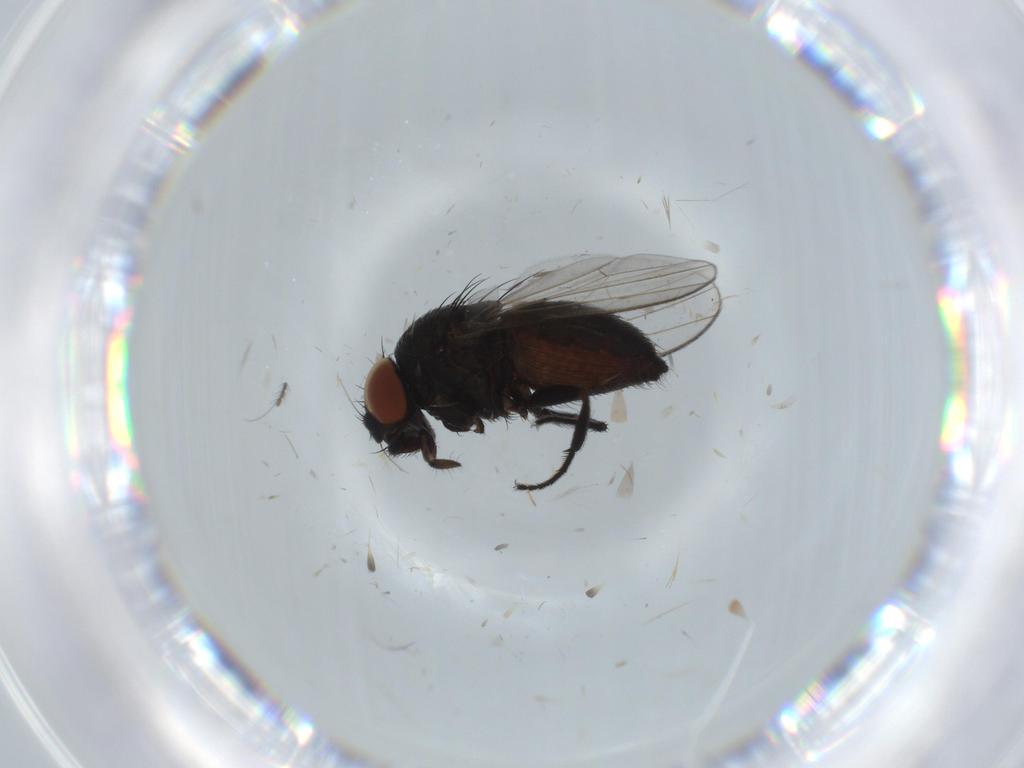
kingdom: Animalia
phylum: Arthropoda
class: Insecta
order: Diptera
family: Milichiidae
